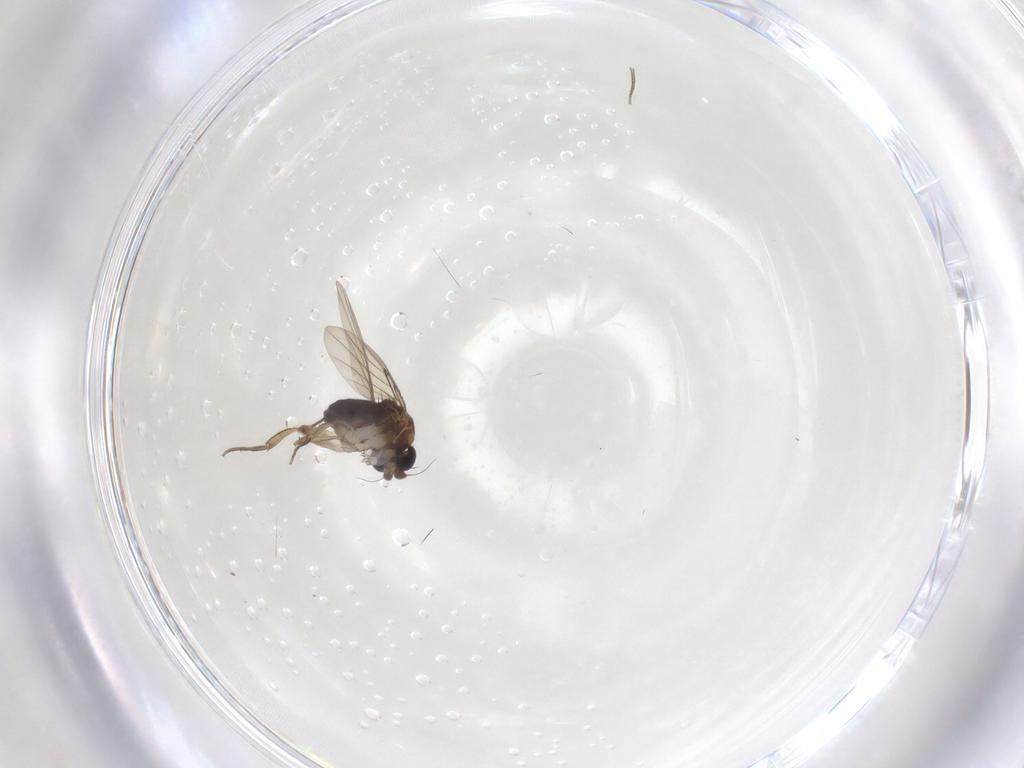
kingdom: Animalia
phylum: Arthropoda
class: Insecta
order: Diptera
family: Phoridae
